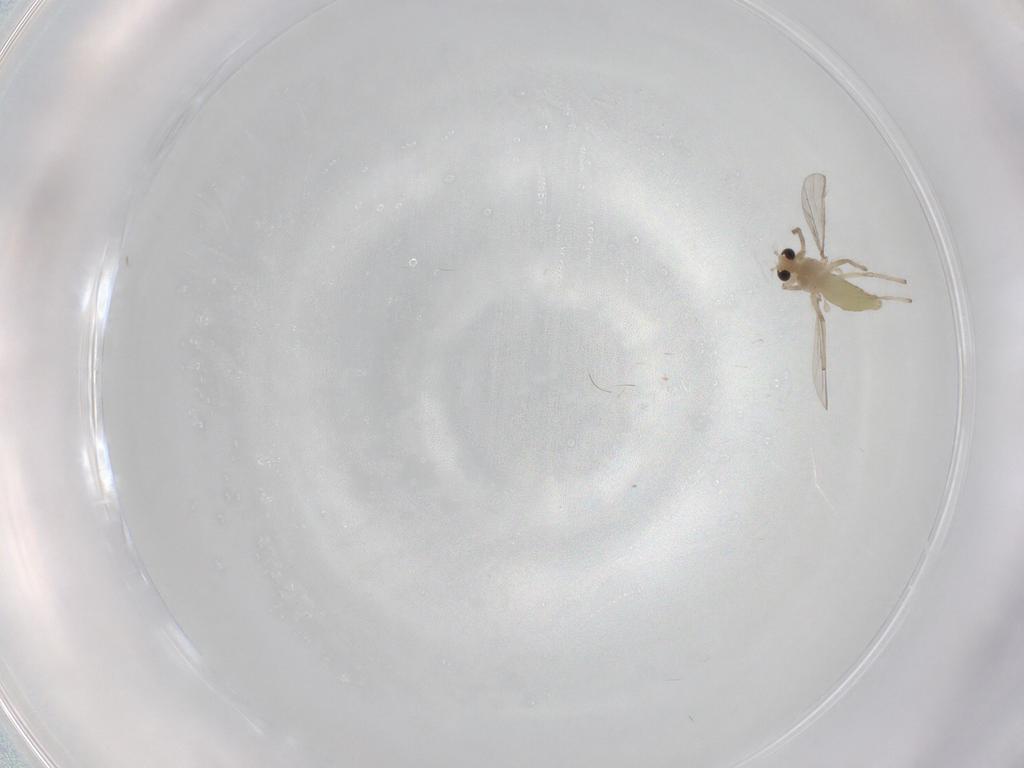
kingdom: Animalia
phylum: Arthropoda
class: Insecta
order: Diptera
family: Chironomidae
